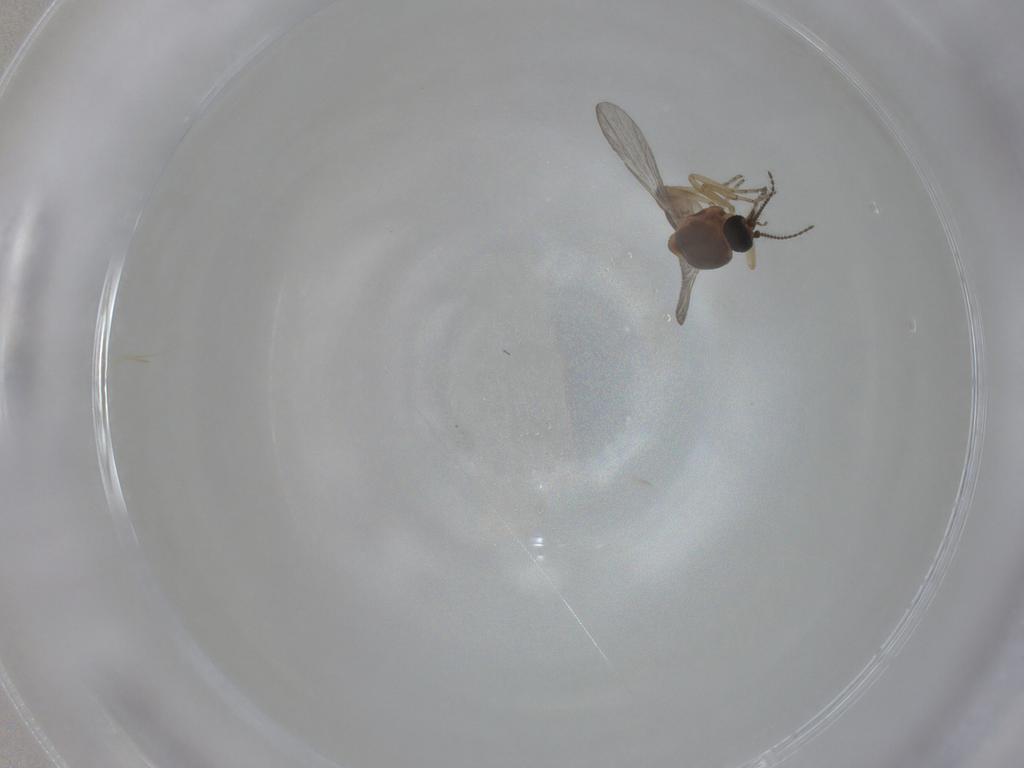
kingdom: Animalia
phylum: Arthropoda
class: Insecta
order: Diptera
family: Ceratopogonidae
